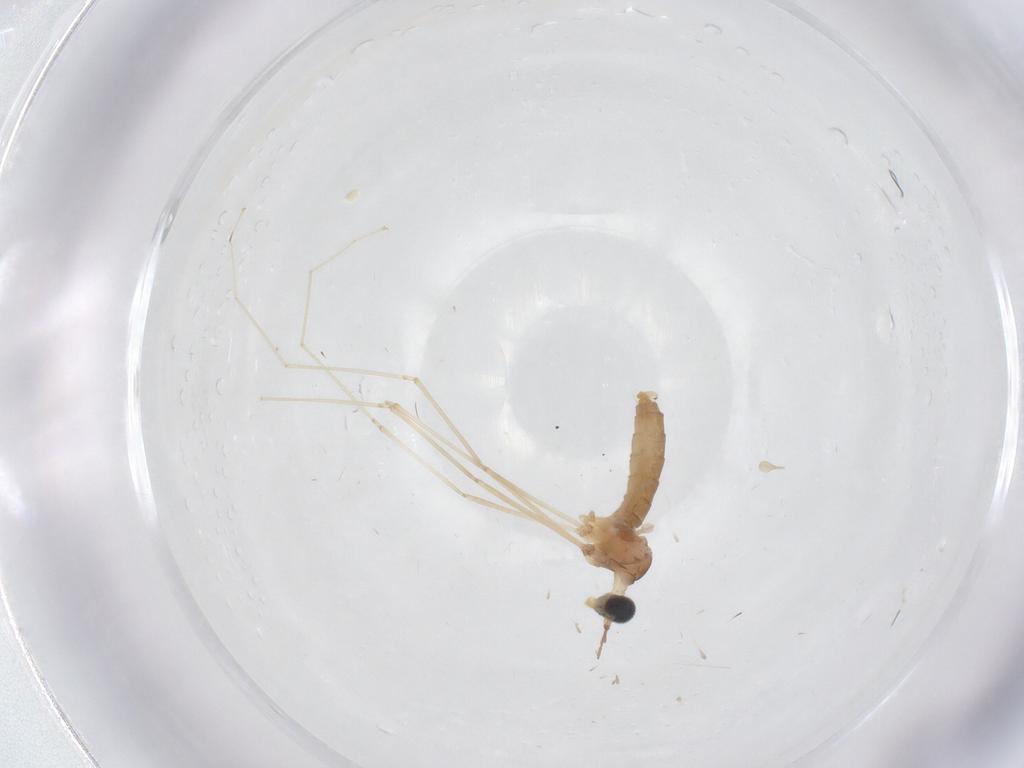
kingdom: Animalia
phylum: Arthropoda
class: Insecta
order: Diptera
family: Cecidomyiidae
